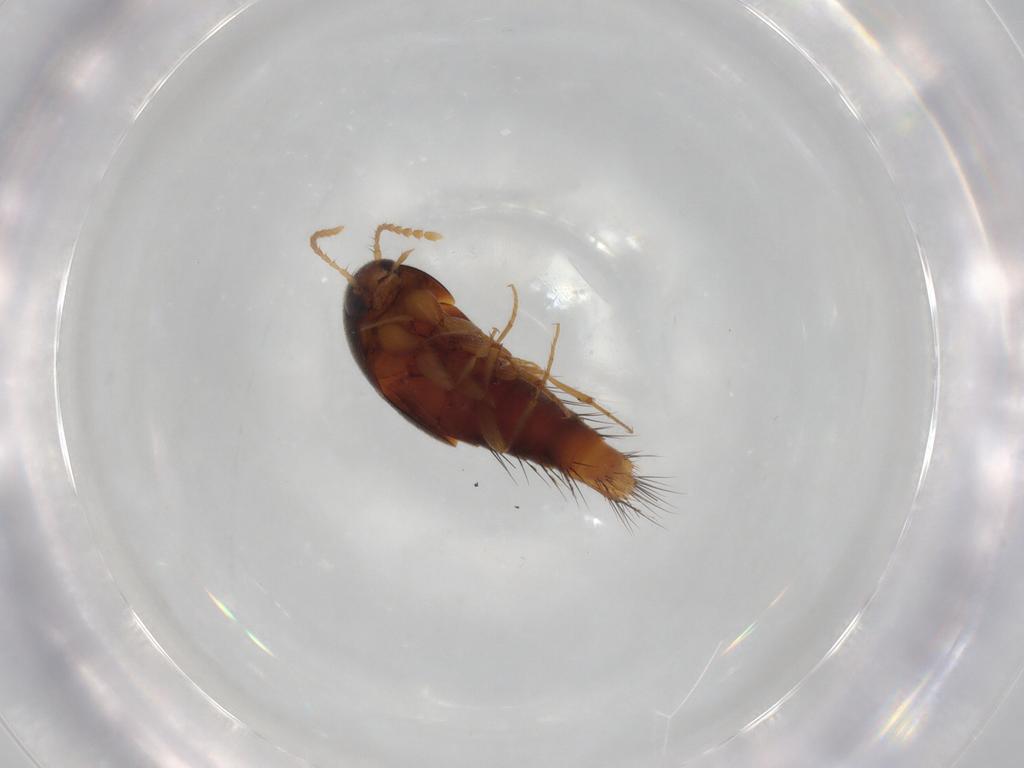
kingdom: Animalia
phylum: Arthropoda
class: Insecta
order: Coleoptera
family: Staphylinidae
